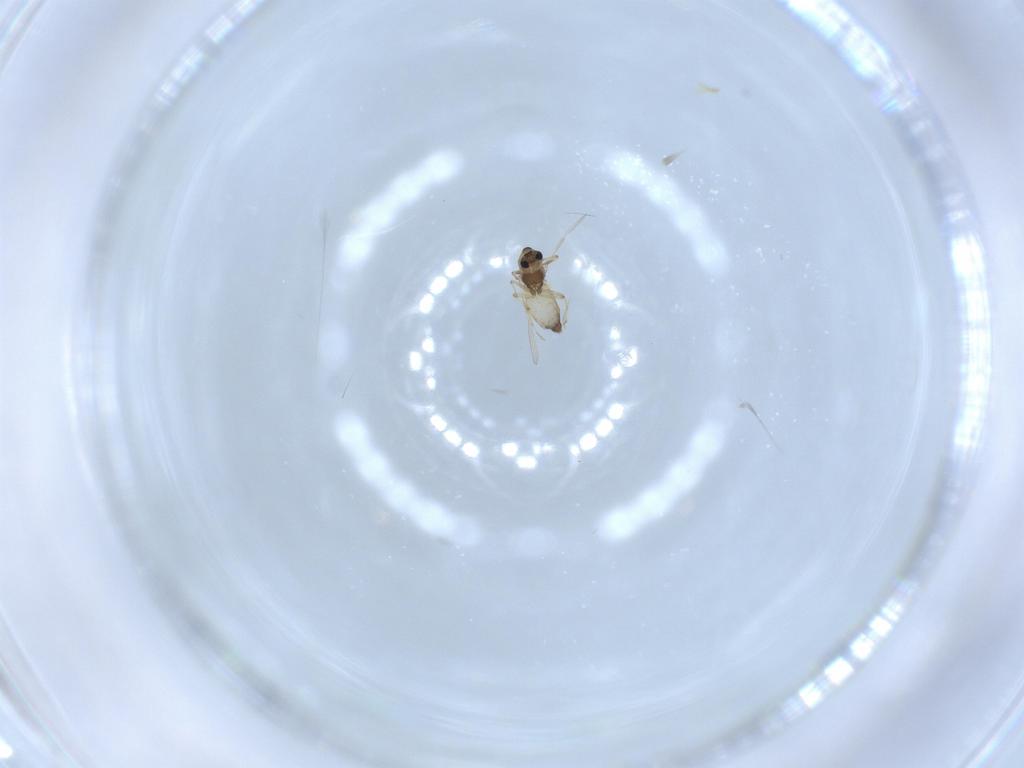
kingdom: Animalia
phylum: Arthropoda
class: Insecta
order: Diptera
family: Chironomidae
